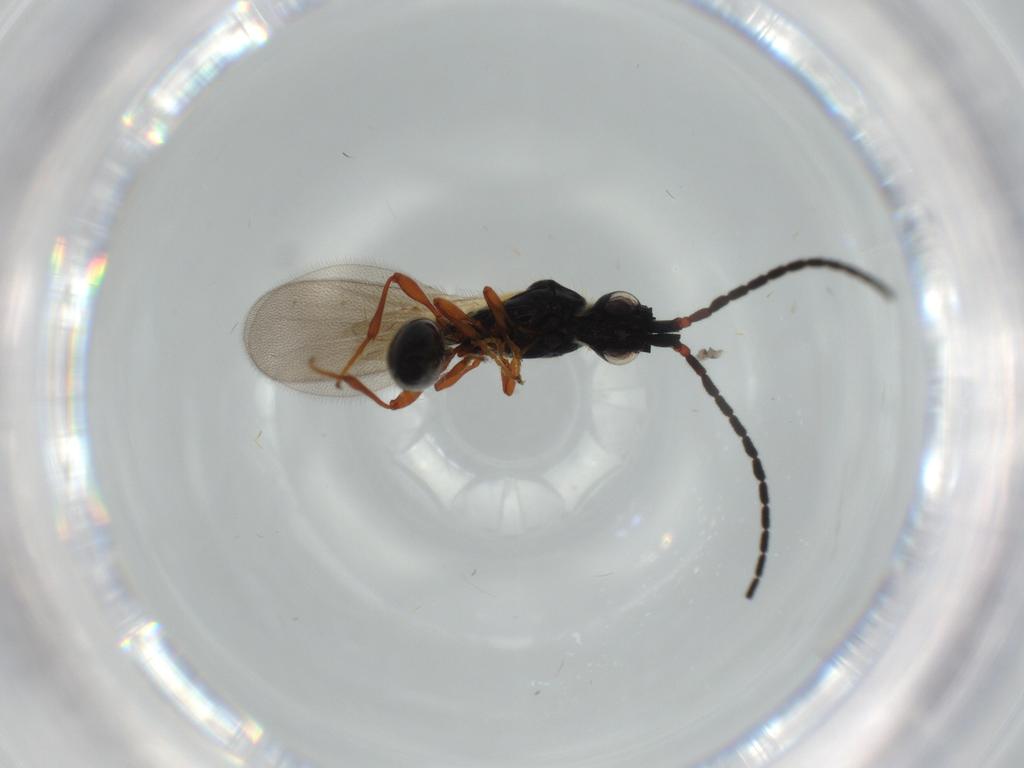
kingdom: Animalia
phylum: Arthropoda
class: Insecta
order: Hymenoptera
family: Diapriidae
